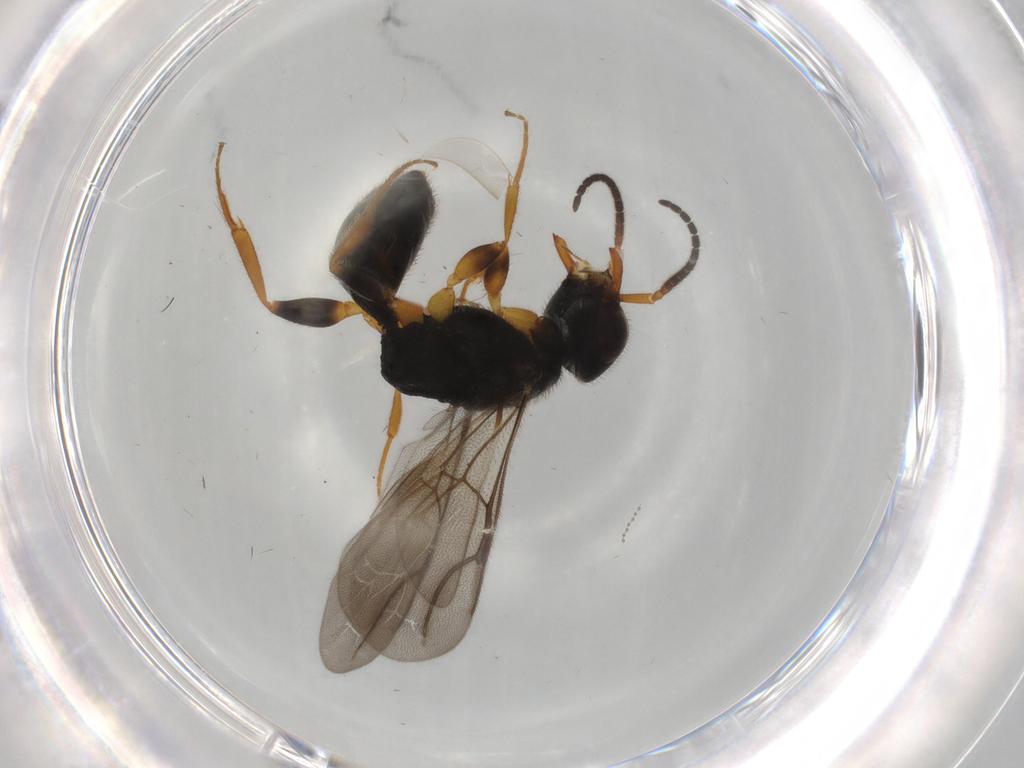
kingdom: Animalia
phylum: Arthropoda
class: Insecta
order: Hymenoptera
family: Bethylidae
